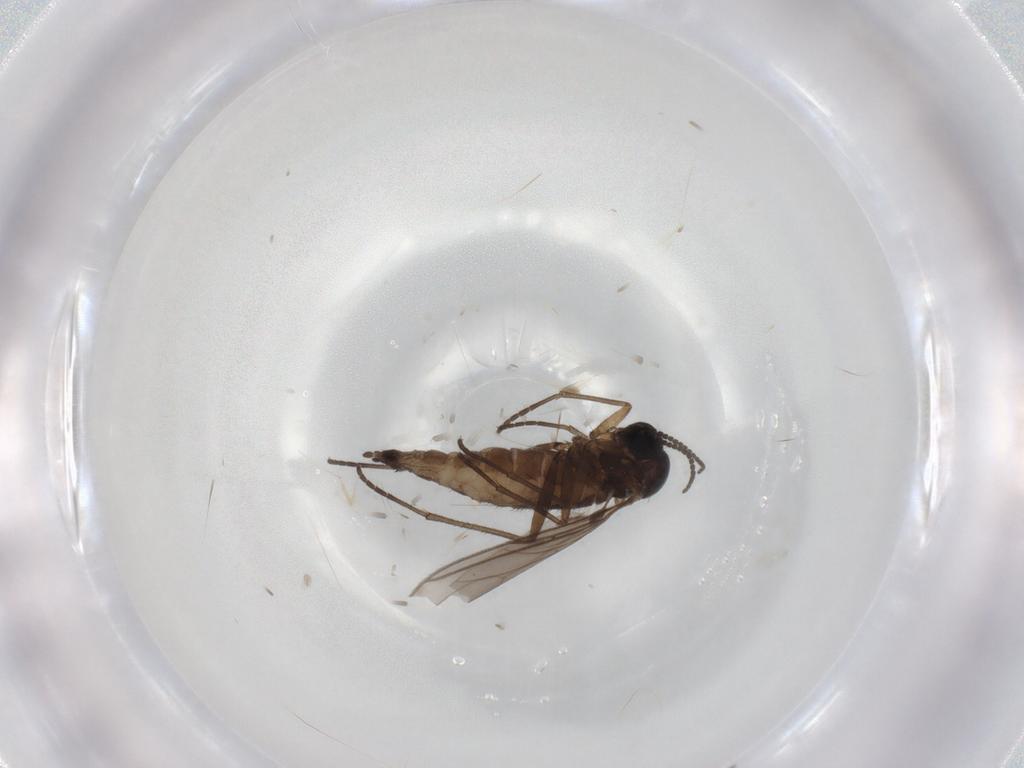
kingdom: Animalia
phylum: Arthropoda
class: Insecta
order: Diptera
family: Sciaridae
